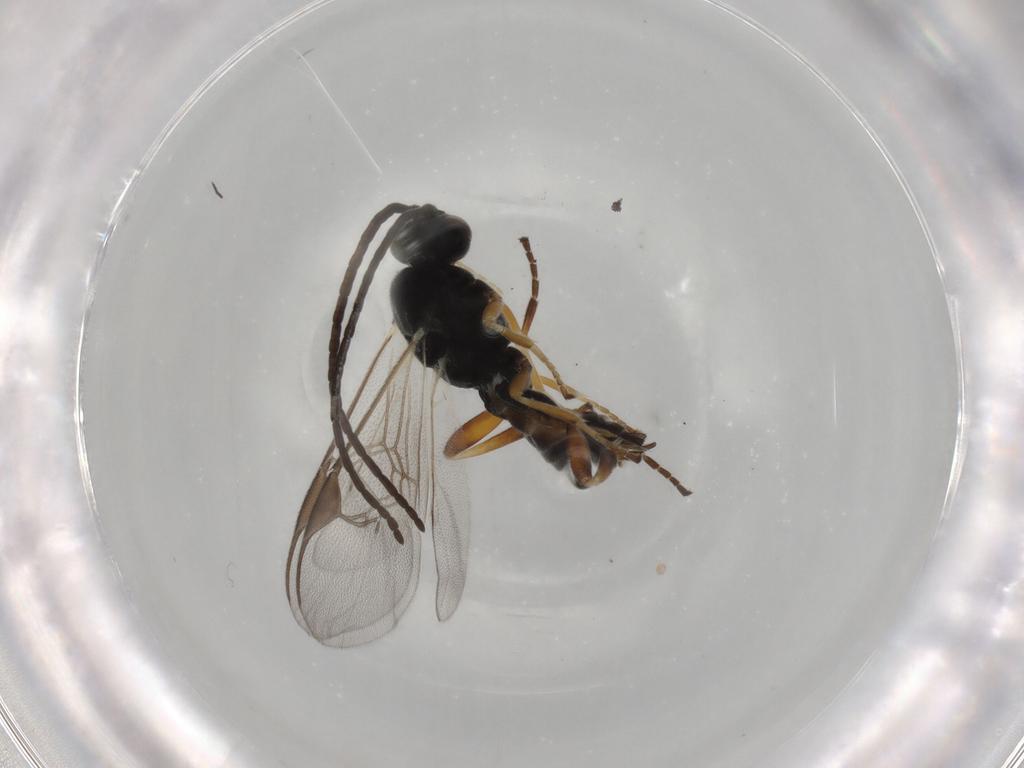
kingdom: Animalia
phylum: Arthropoda
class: Insecta
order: Hymenoptera
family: Braconidae
